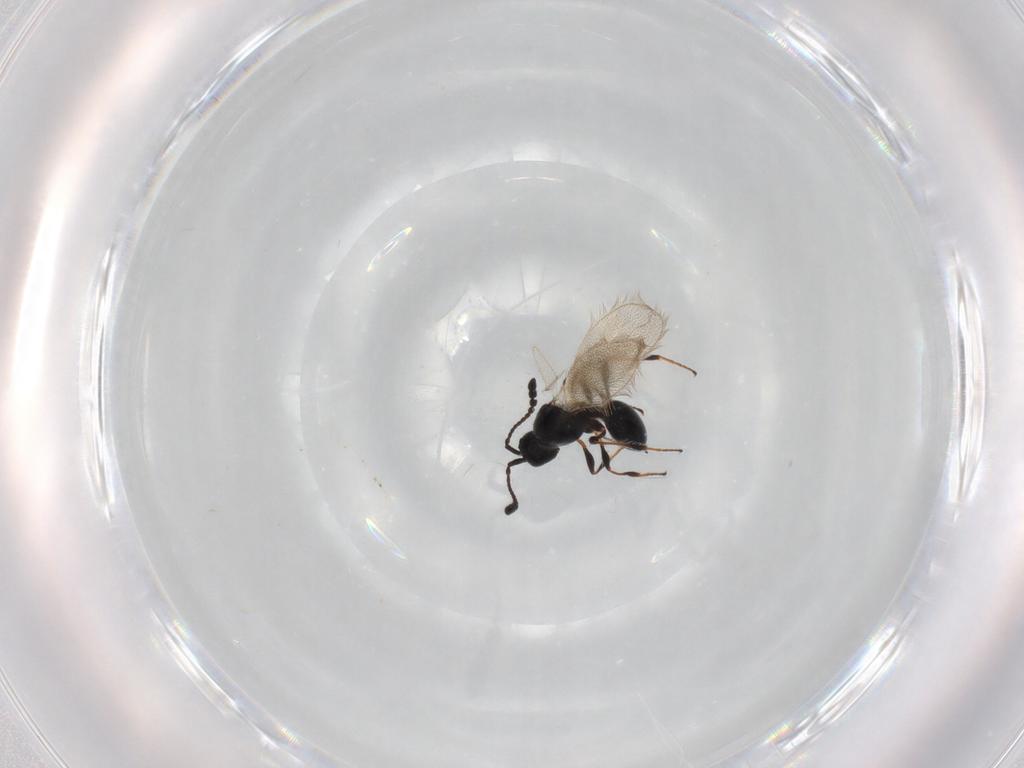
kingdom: Animalia
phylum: Arthropoda
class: Insecta
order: Hymenoptera
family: Diapriidae
